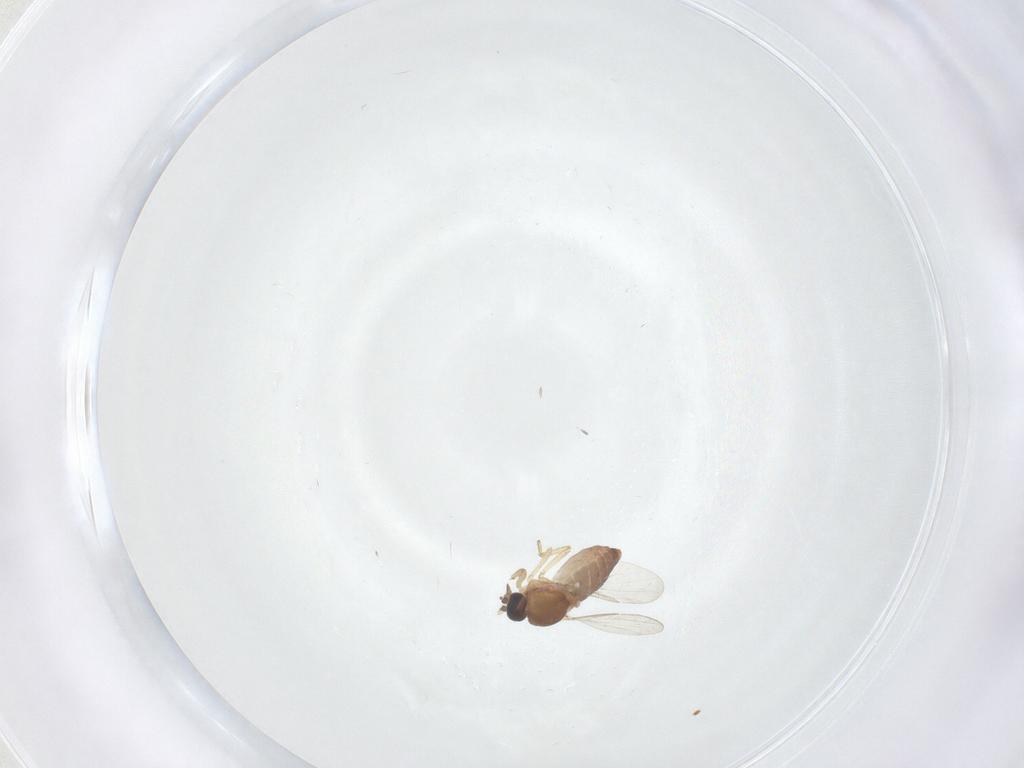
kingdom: Animalia
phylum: Arthropoda
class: Insecta
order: Diptera
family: Ceratopogonidae
